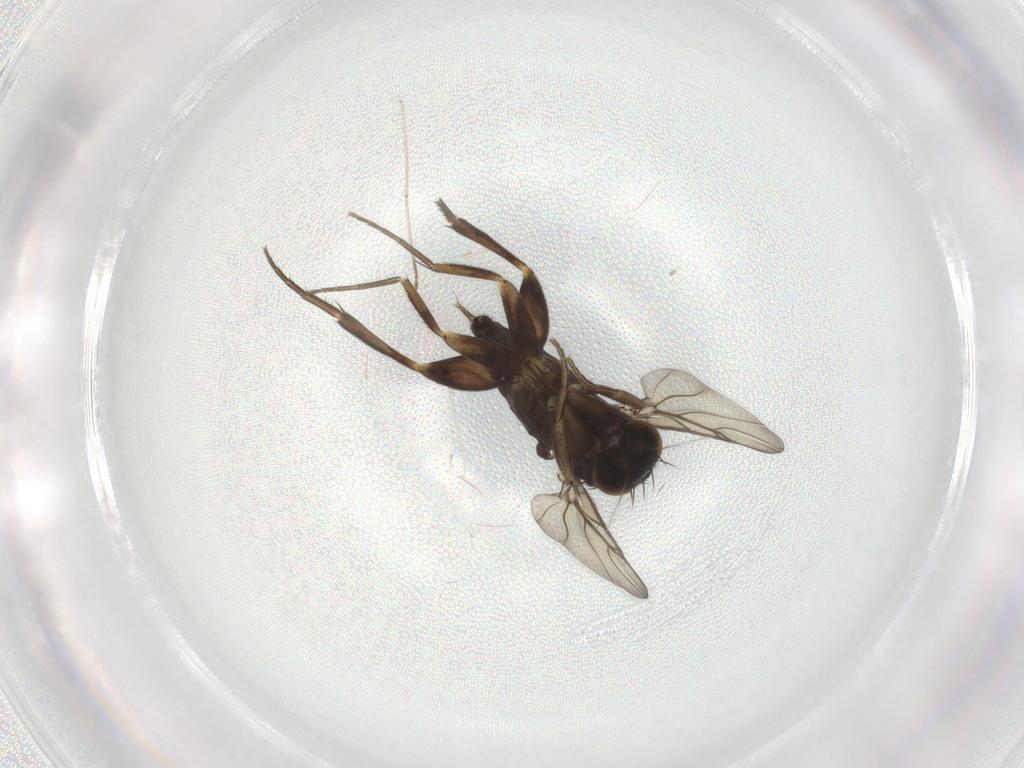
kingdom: Animalia
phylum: Arthropoda
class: Insecta
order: Diptera
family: Phoridae
